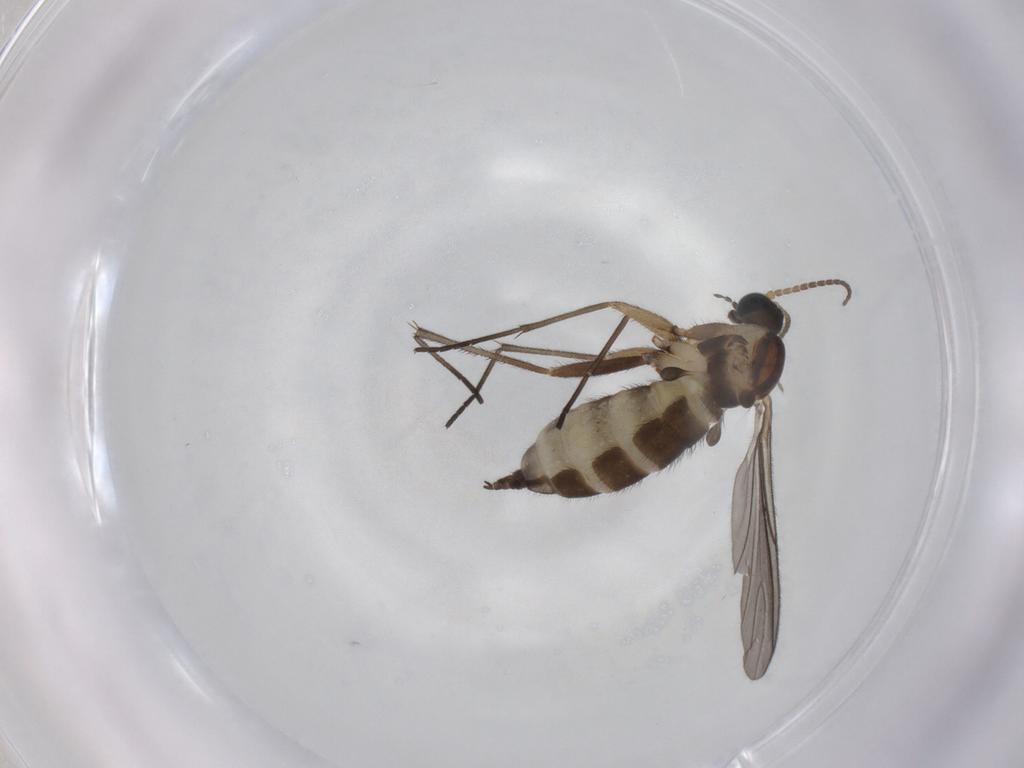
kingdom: Animalia
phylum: Arthropoda
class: Insecta
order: Diptera
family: Sciaridae
